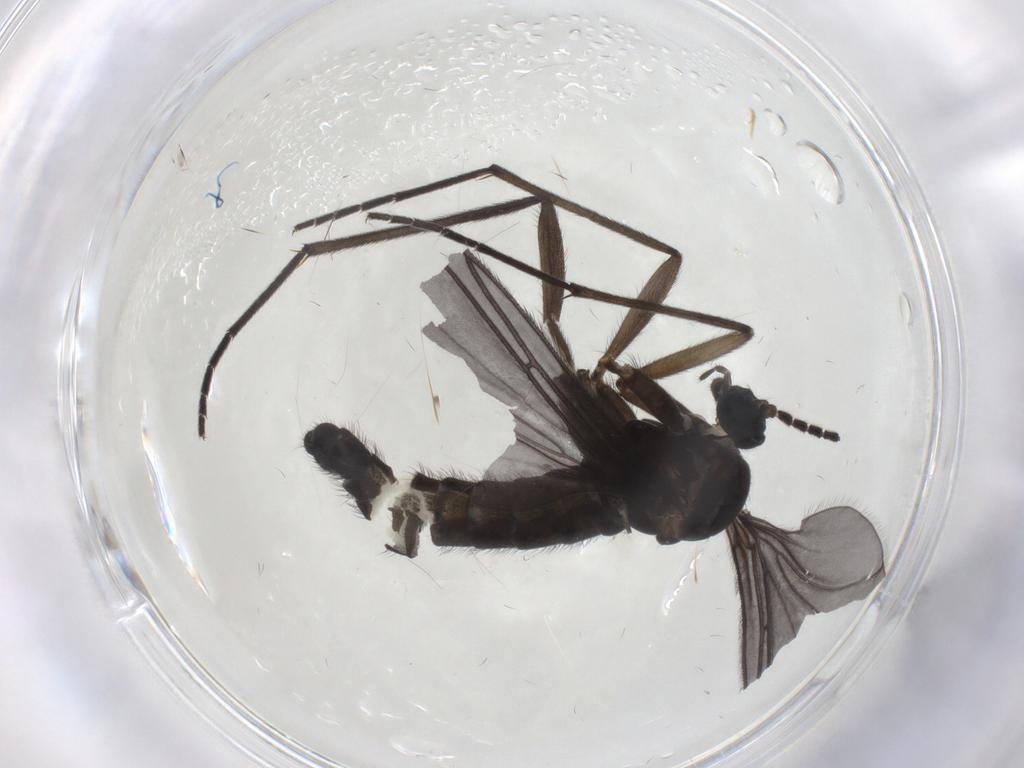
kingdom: Animalia
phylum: Arthropoda
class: Insecta
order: Diptera
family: Sciaridae
